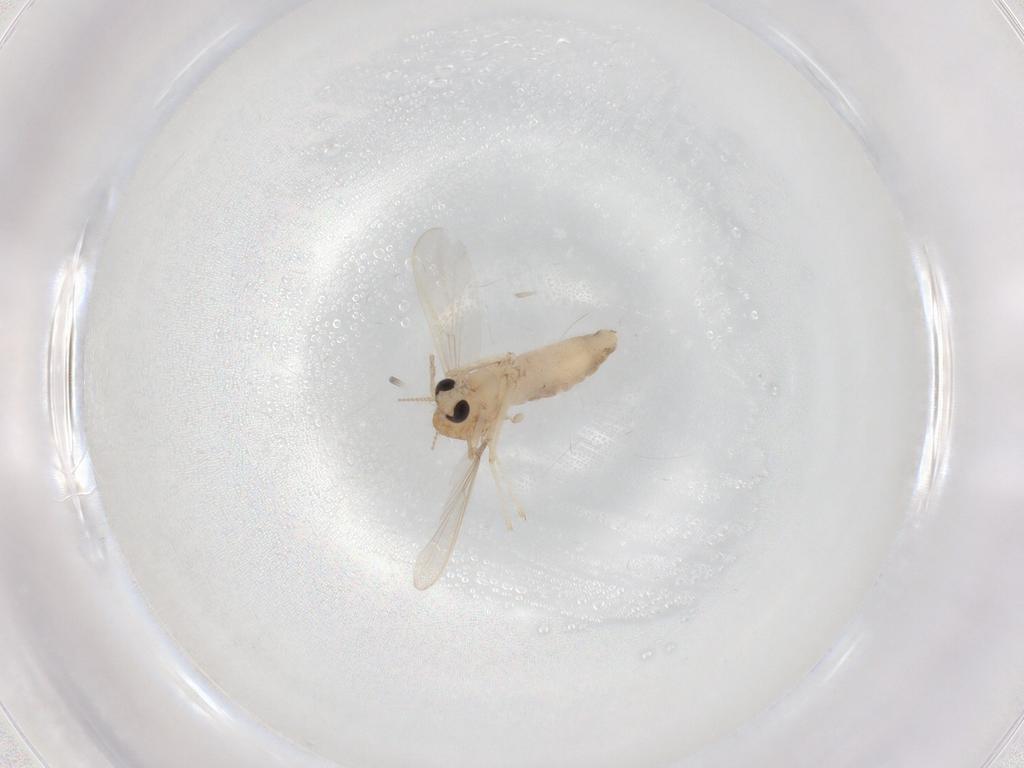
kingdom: Animalia
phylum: Arthropoda
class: Insecta
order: Diptera
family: Chironomidae
